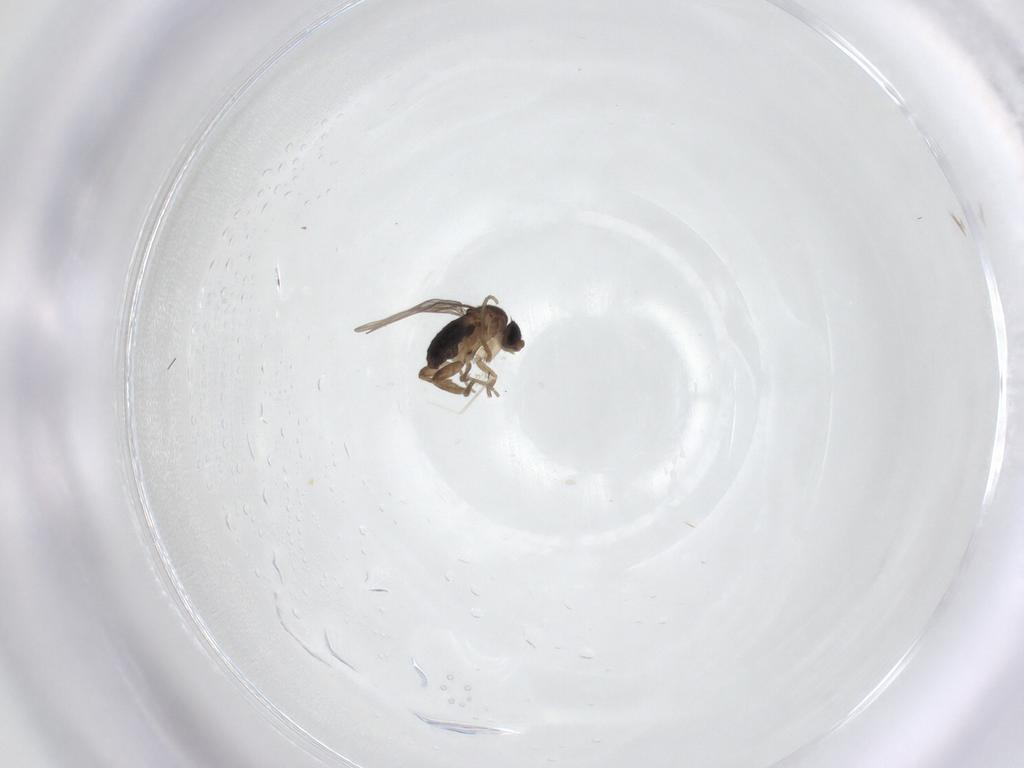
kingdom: Animalia
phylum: Arthropoda
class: Insecta
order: Diptera
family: Phoridae
